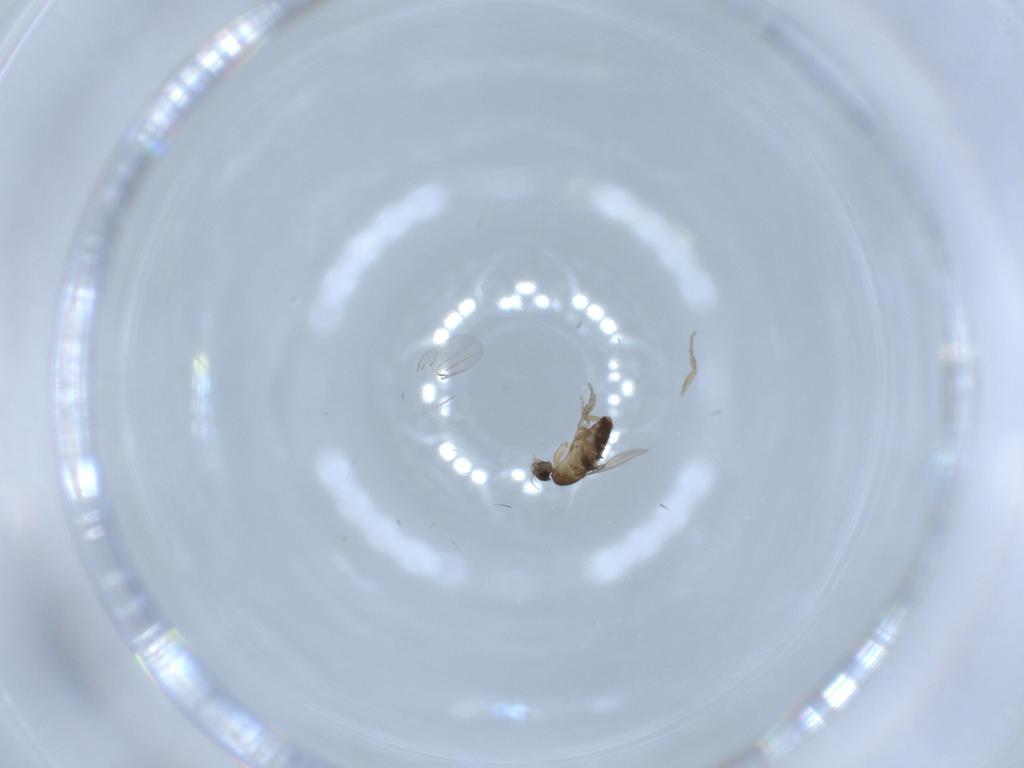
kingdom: Animalia
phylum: Arthropoda
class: Insecta
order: Diptera
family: Phoridae
